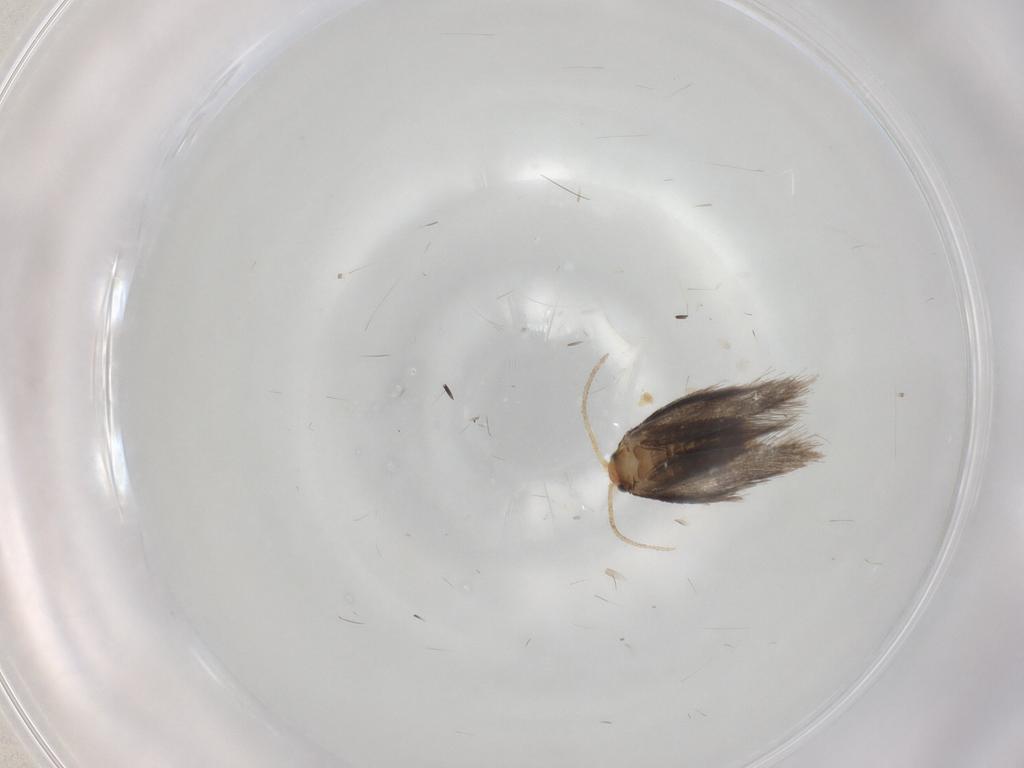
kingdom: Animalia
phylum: Arthropoda
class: Insecta
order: Lepidoptera
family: Nepticulidae
